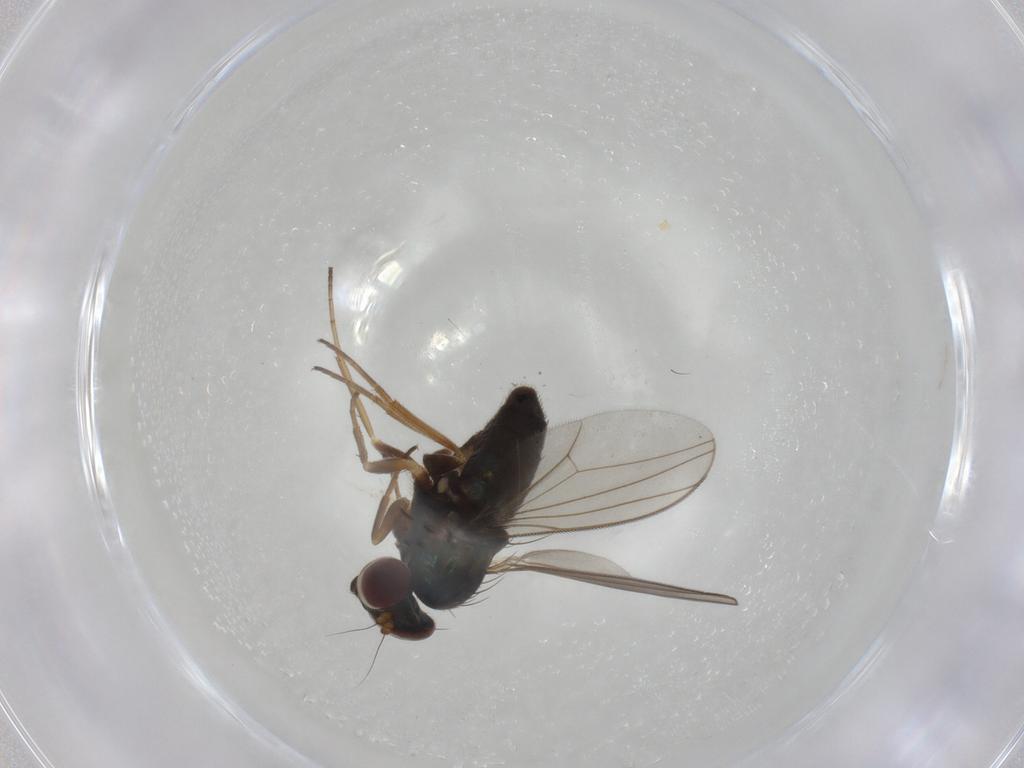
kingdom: Animalia
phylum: Arthropoda
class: Insecta
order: Diptera
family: Dolichopodidae
